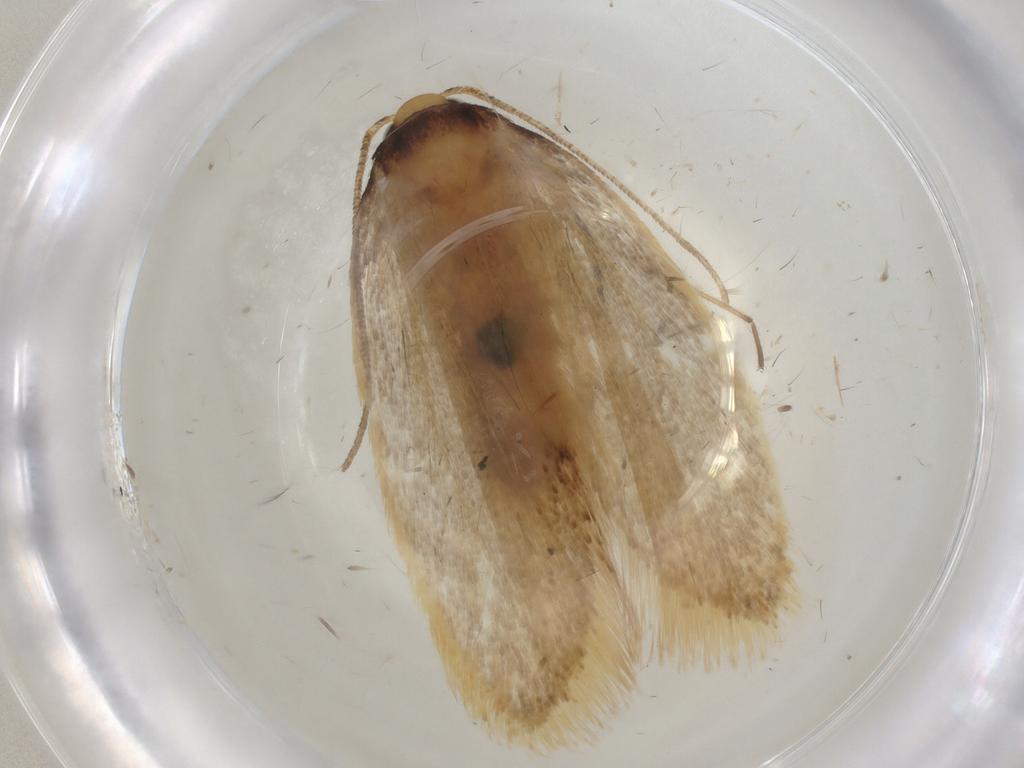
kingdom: Animalia
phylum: Arthropoda
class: Insecta
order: Lepidoptera
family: Depressariidae
